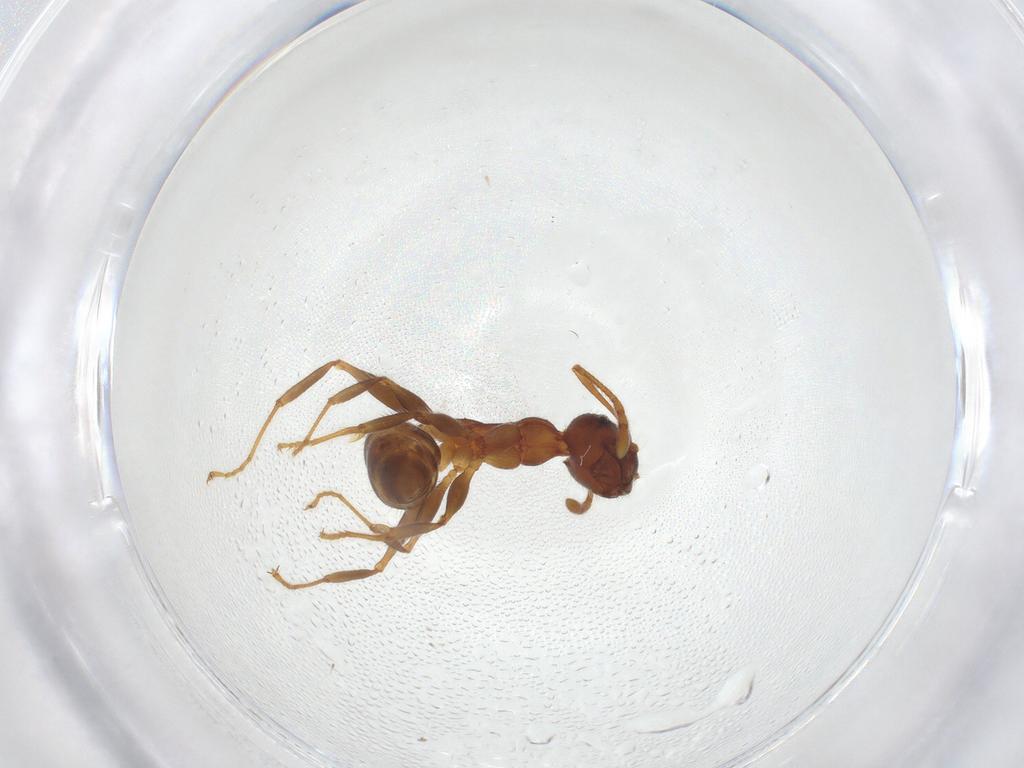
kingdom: Animalia
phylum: Arthropoda
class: Insecta
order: Hymenoptera
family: Formicidae
